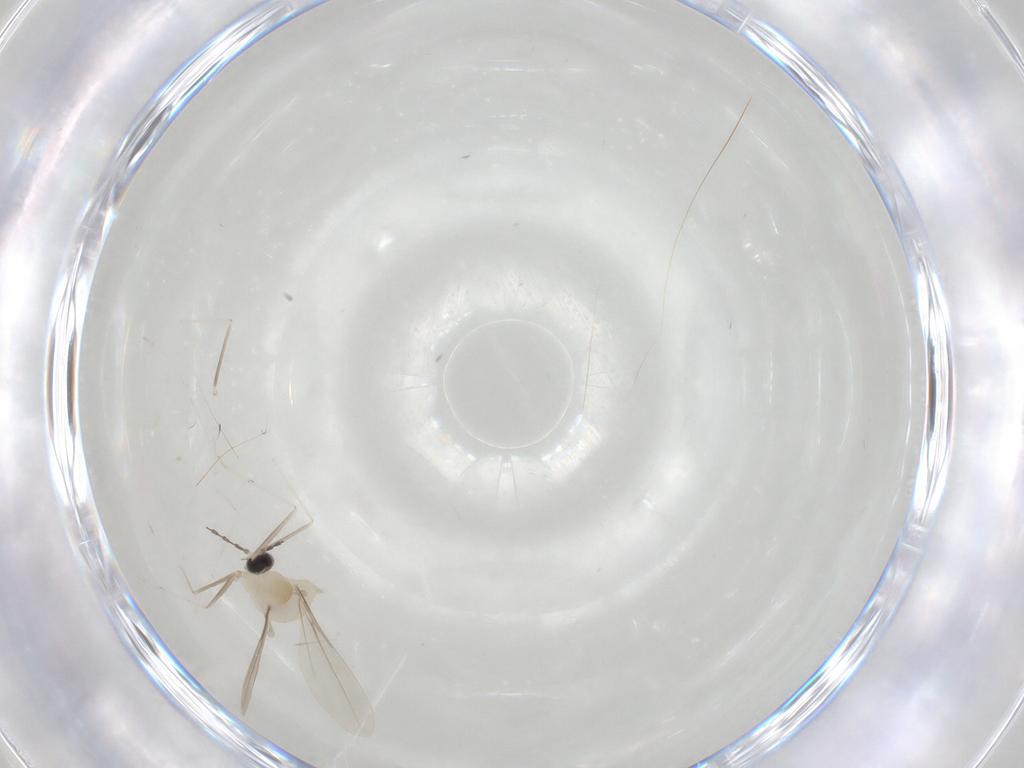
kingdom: Animalia
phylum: Arthropoda
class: Insecta
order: Diptera
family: Cecidomyiidae
